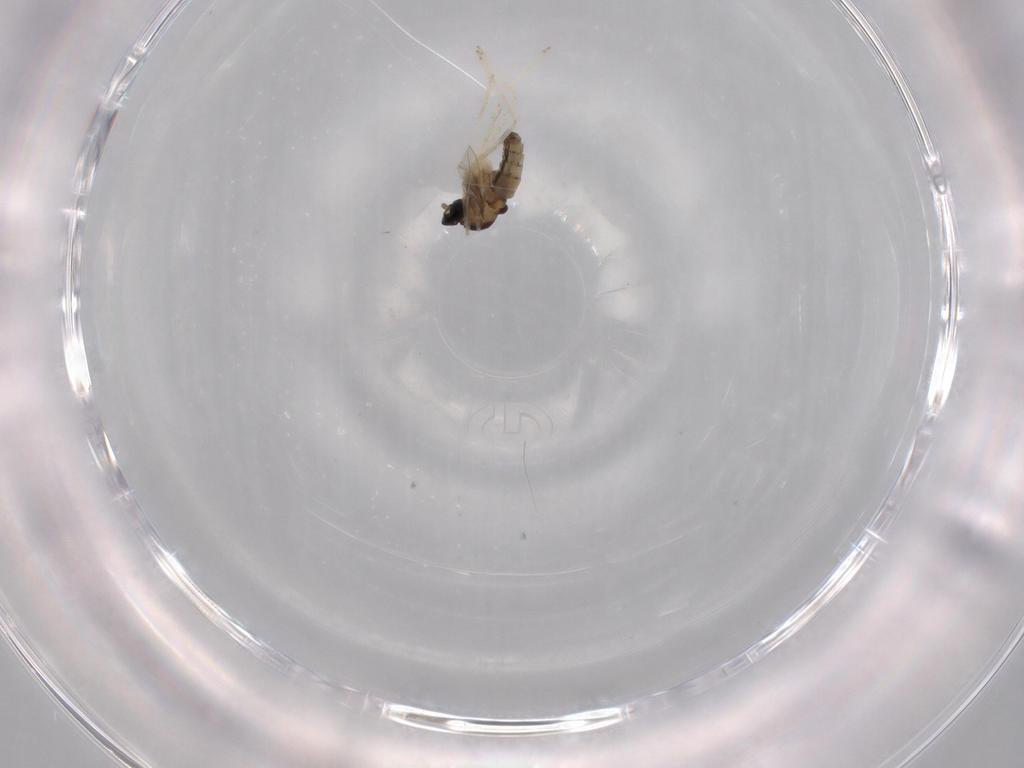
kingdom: Animalia
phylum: Arthropoda
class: Insecta
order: Diptera
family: Cecidomyiidae
